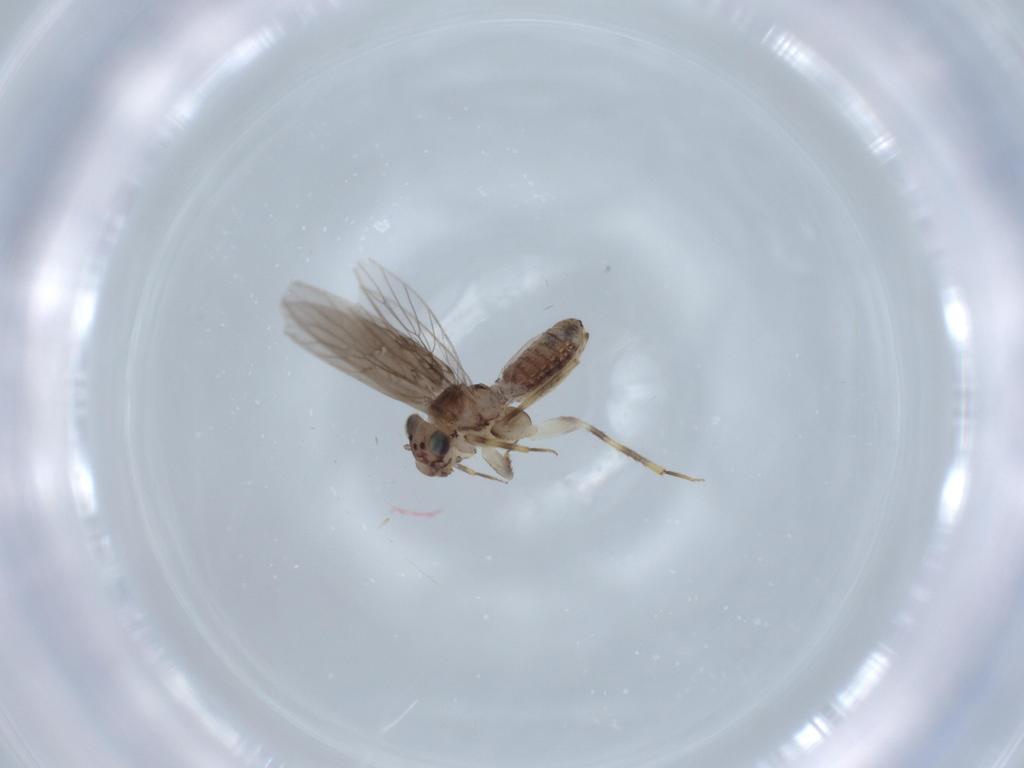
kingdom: Animalia
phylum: Arthropoda
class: Insecta
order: Psocodea
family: Lepidopsocidae
